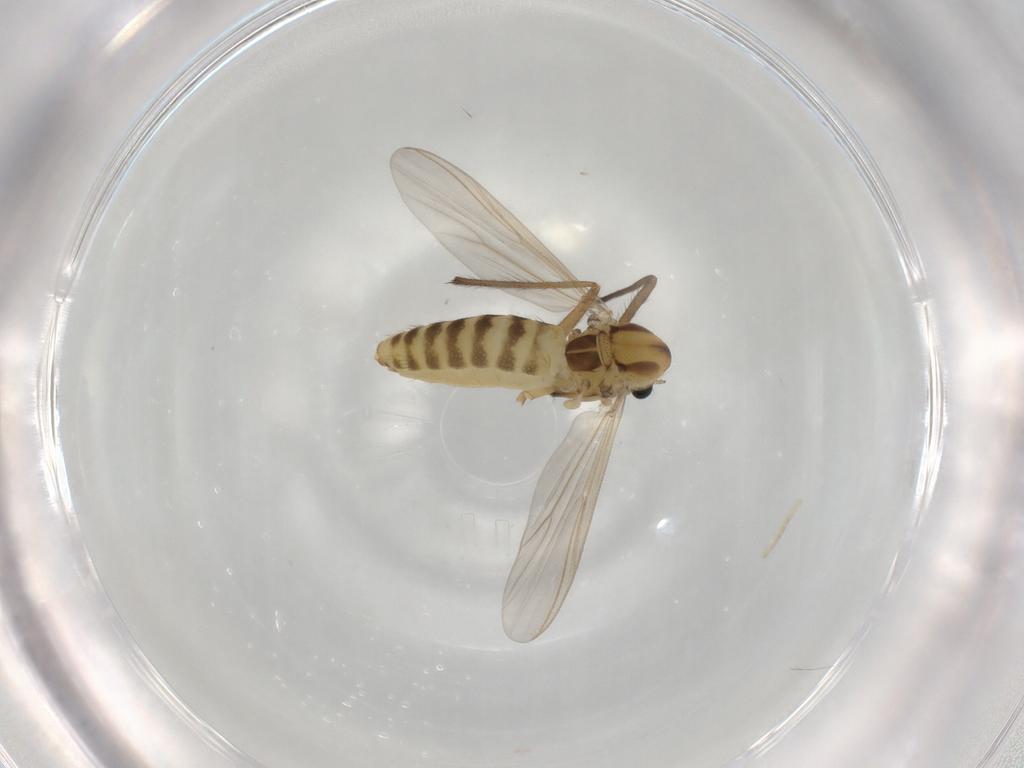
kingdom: Animalia
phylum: Arthropoda
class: Insecta
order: Diptera
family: Chironomidae
